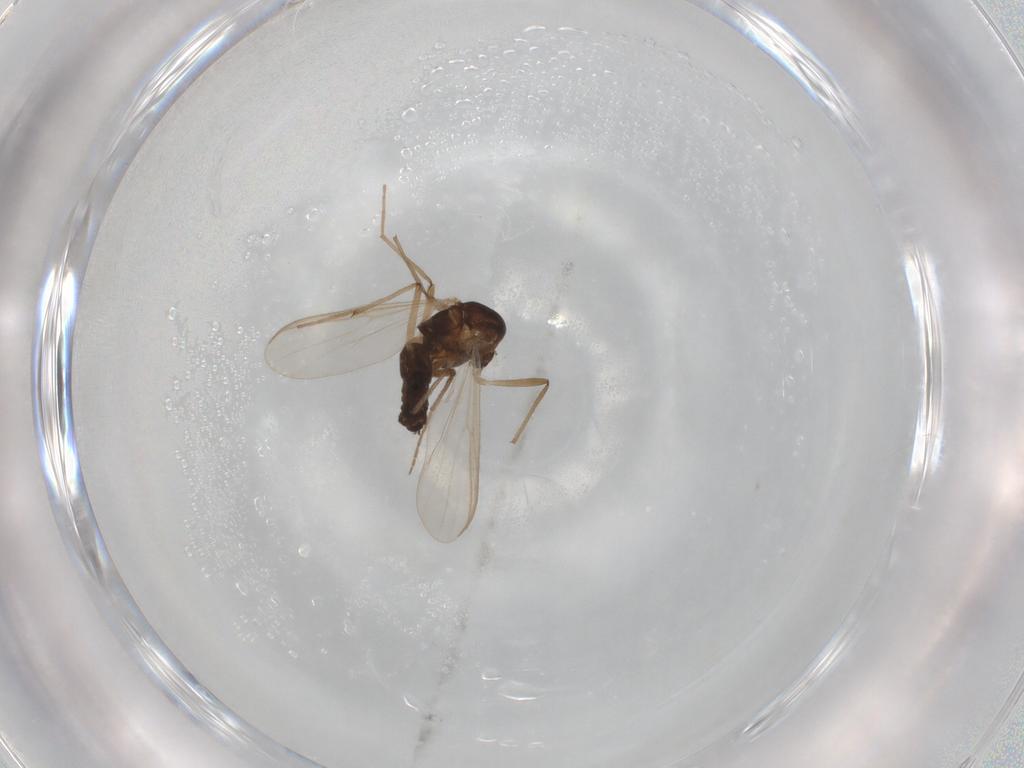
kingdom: Animalia
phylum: Arthropoda
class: Insecta
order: Diptera
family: Chironomidae
